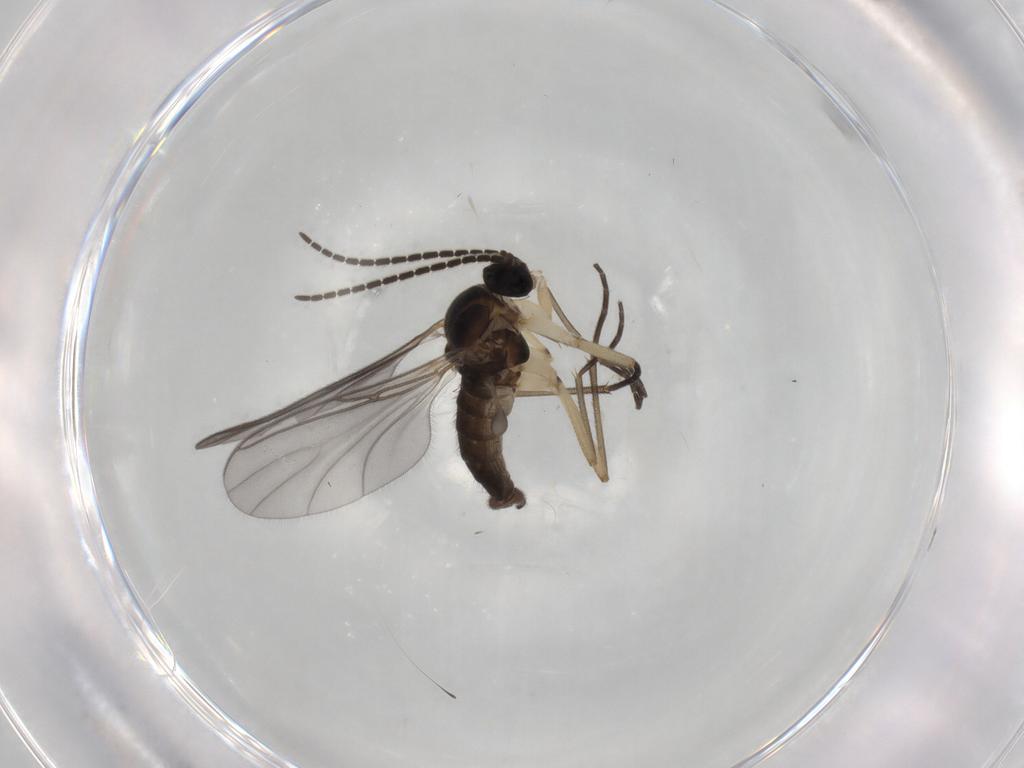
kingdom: Animalia
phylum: Arthropoda
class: Insecta
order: Diptera
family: Sciaridae
